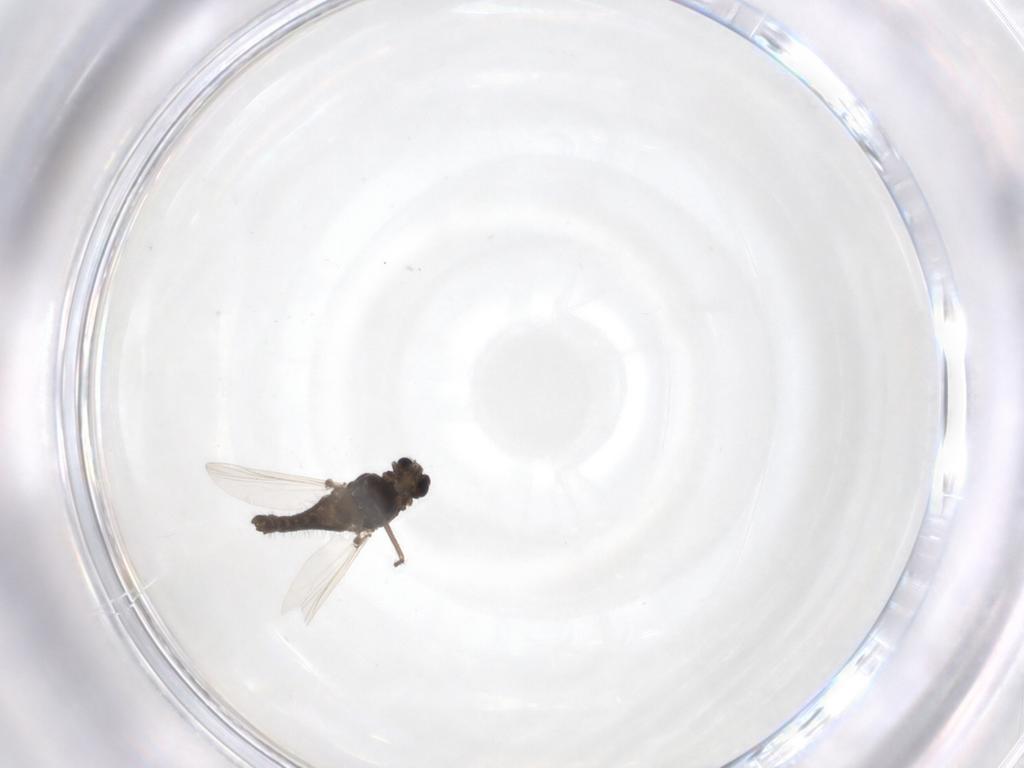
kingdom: Animalia
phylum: Arthropoda
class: Insecta
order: Diptera
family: Chironomidae
